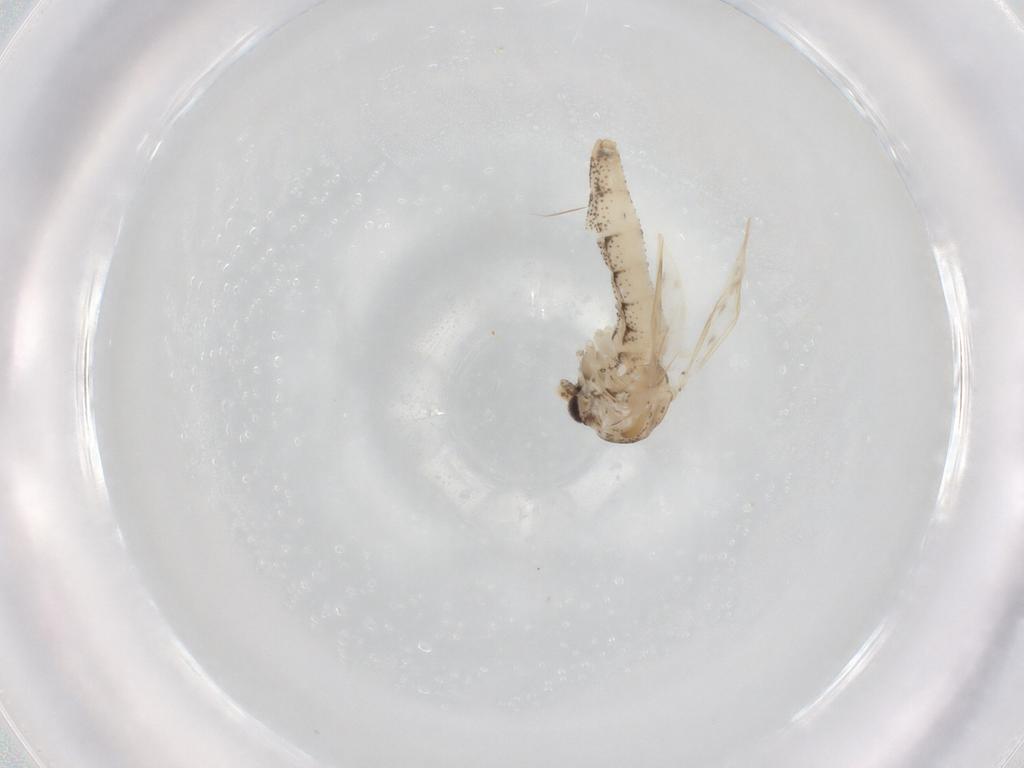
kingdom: Animalia
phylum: Arthropoda
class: Insecta
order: Diptera
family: Chaoboridae
